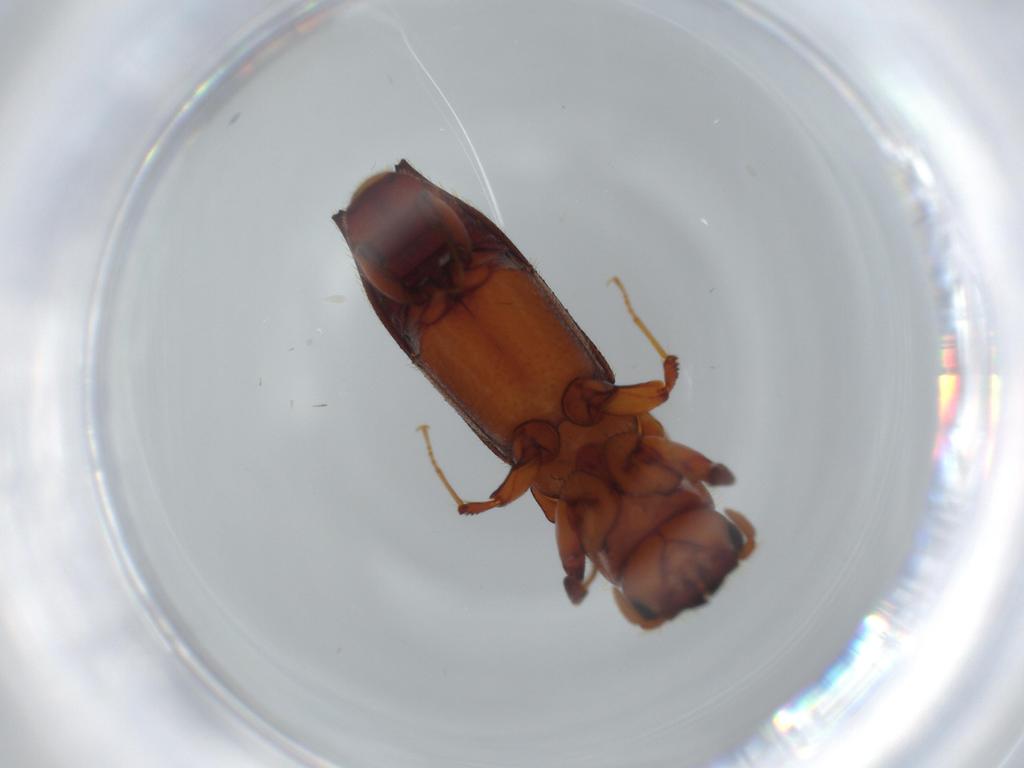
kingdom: Animalia
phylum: Arthropoda
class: Insecta
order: Coleoptera
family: Curculionidae
